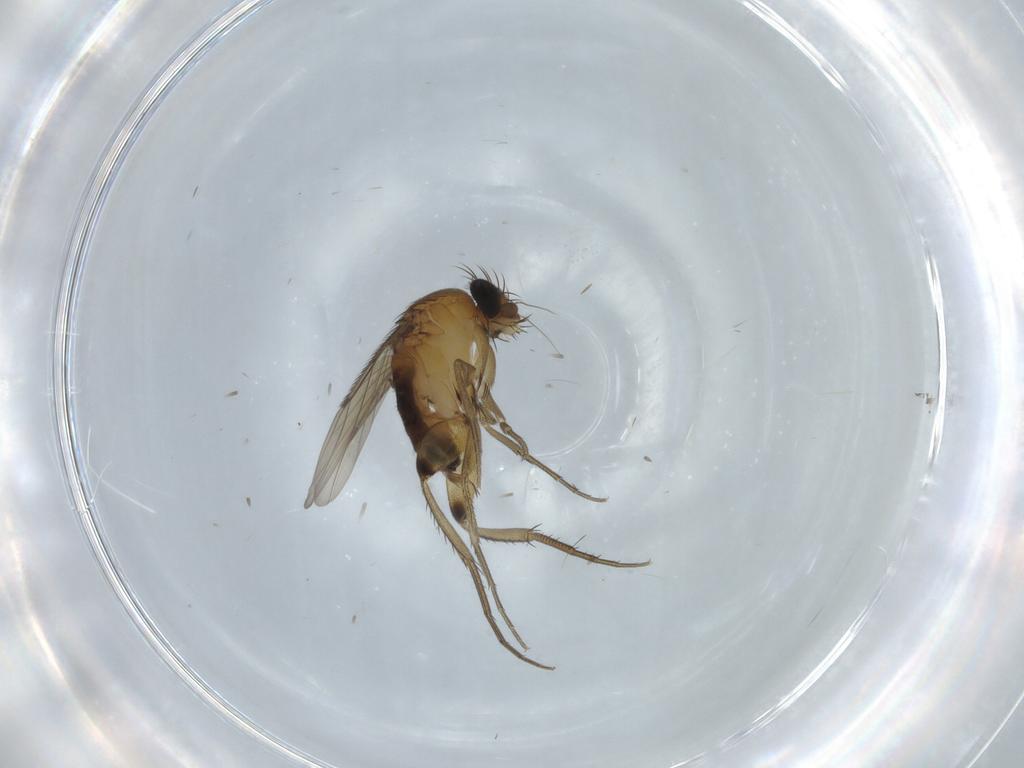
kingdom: Animalia
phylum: Arthropoda
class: Insecta
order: Diptera
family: Phoridae
